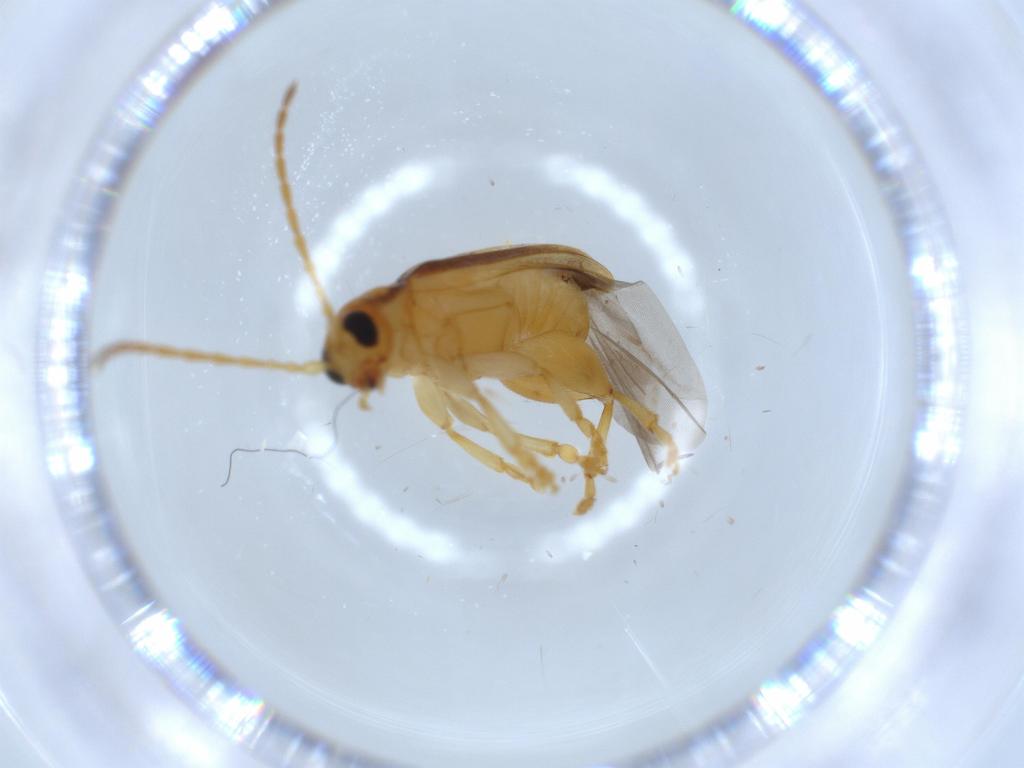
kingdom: Animalia
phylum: Arthropoda
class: Insecta
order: Coleoptera
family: Chrysomelidae
